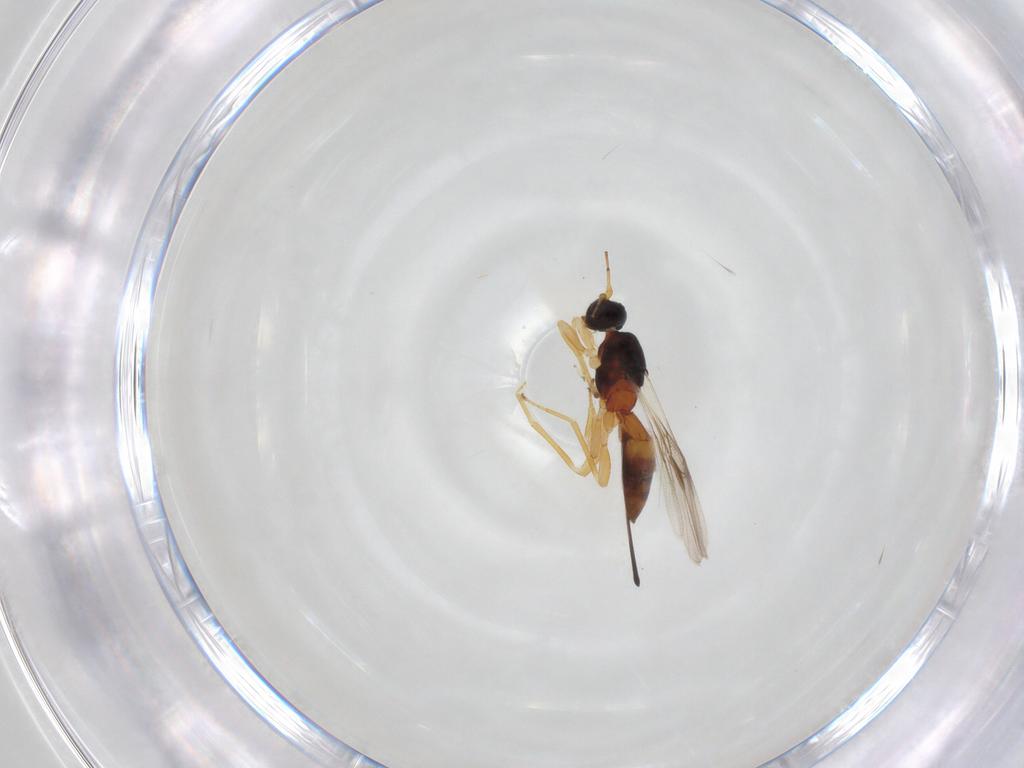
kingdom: Animalia
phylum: Arthropoda
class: Insecta
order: Hymenoptera
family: Braconidae
